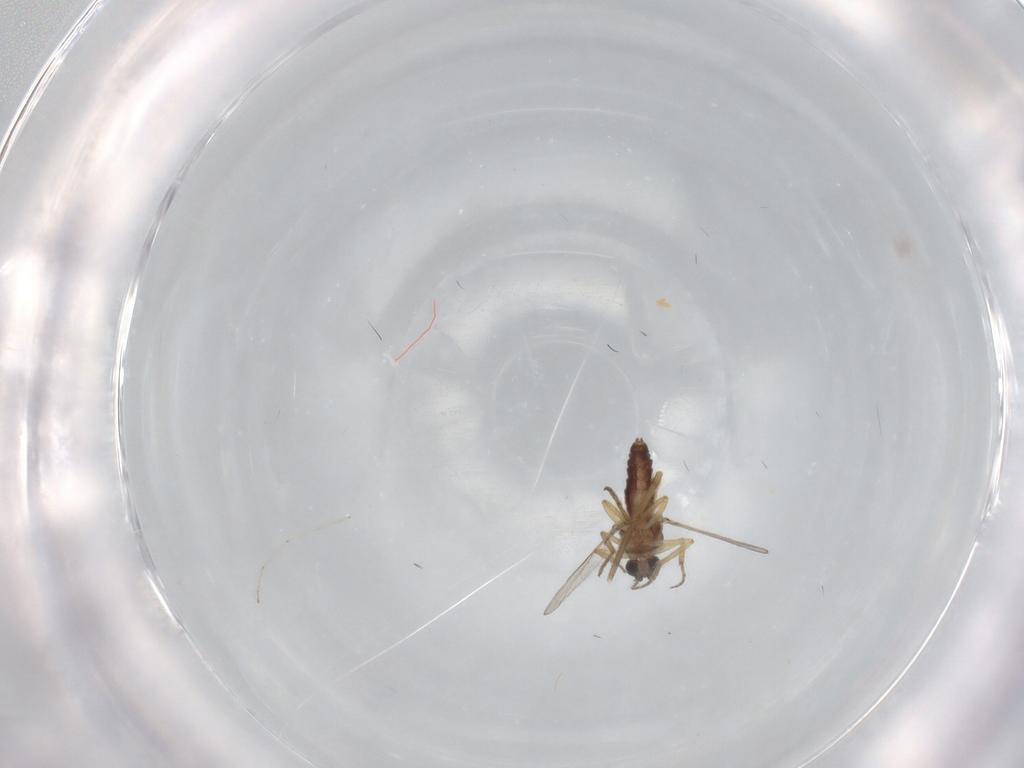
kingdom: Animalia
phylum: Arthropoda
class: Insecta
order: Diptera
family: Chironomidae
